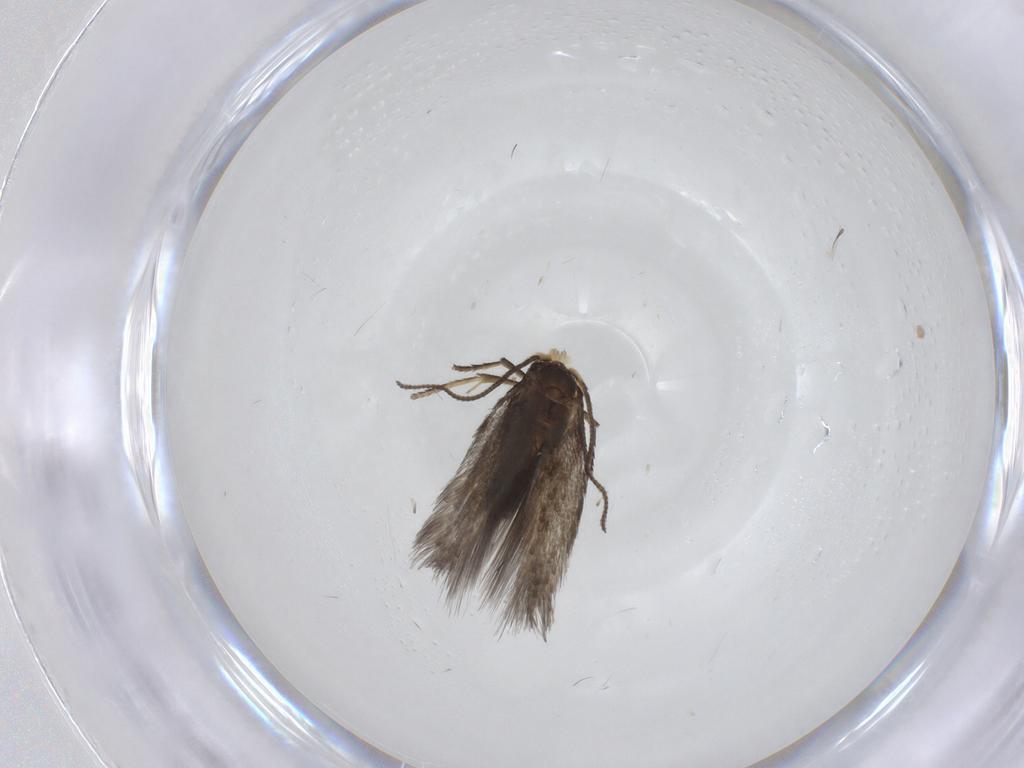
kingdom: Animalia
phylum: Arthropoda
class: Insecta
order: Lepidoptera
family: Nepticulidae
